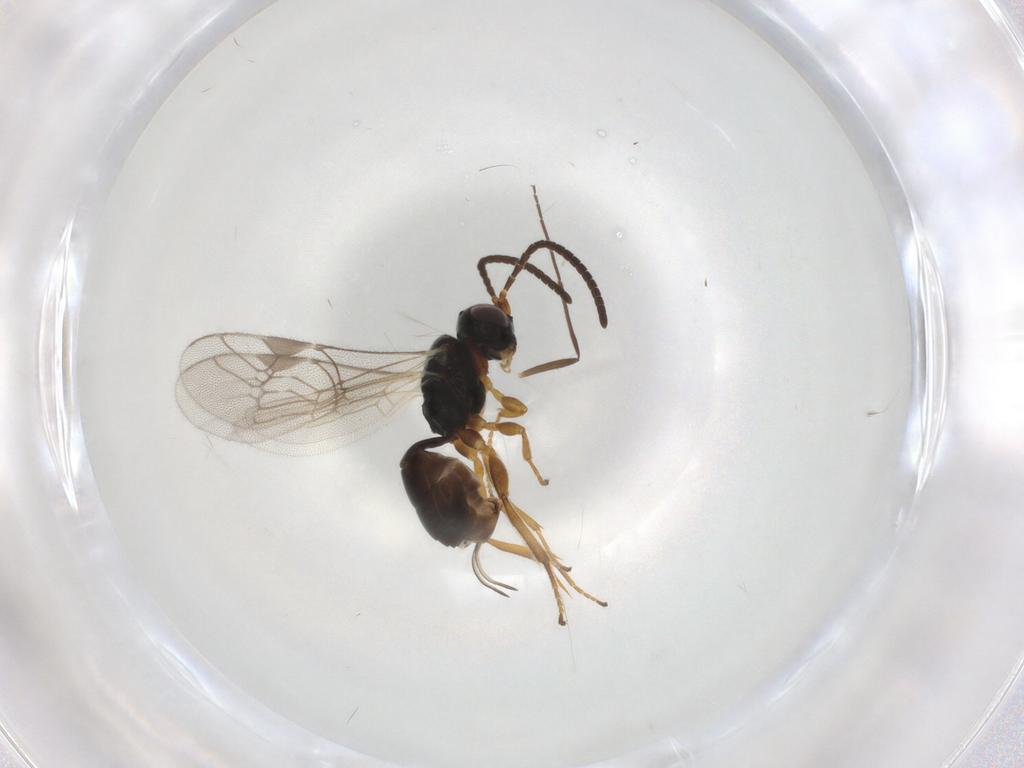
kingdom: Animalia
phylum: Arthropoda
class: Insecta
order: Hymenoptera
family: Ichneumonidae
